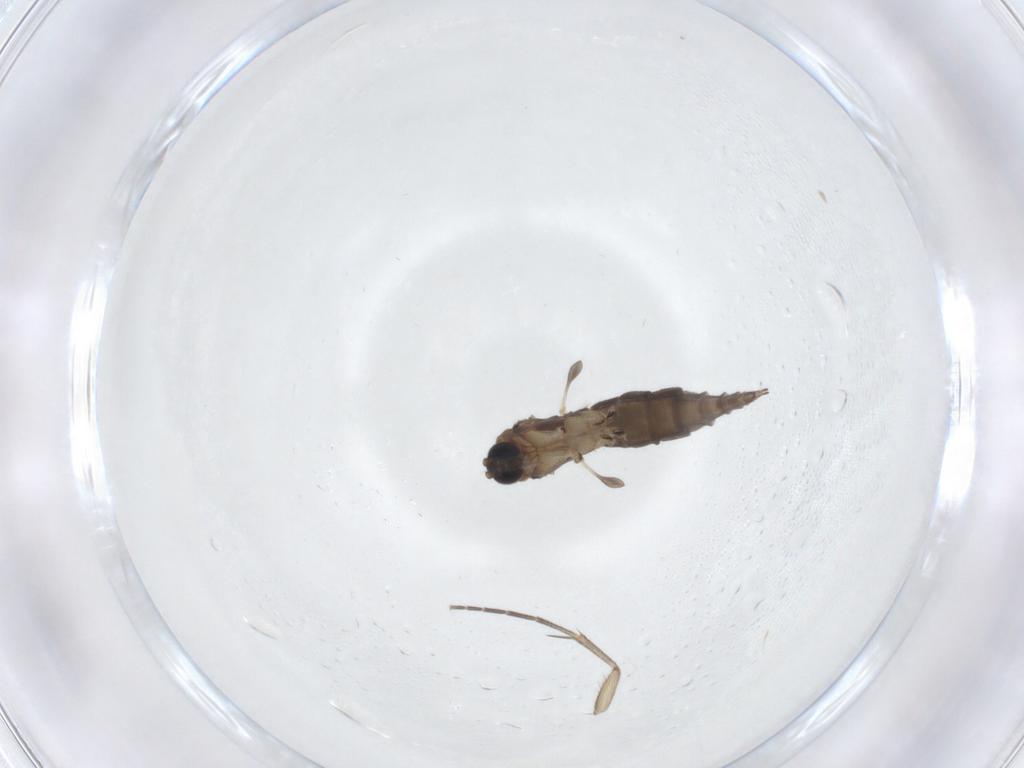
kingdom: Animalia
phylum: Arthropoda
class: Insecta
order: Diptera
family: Sciaridae
